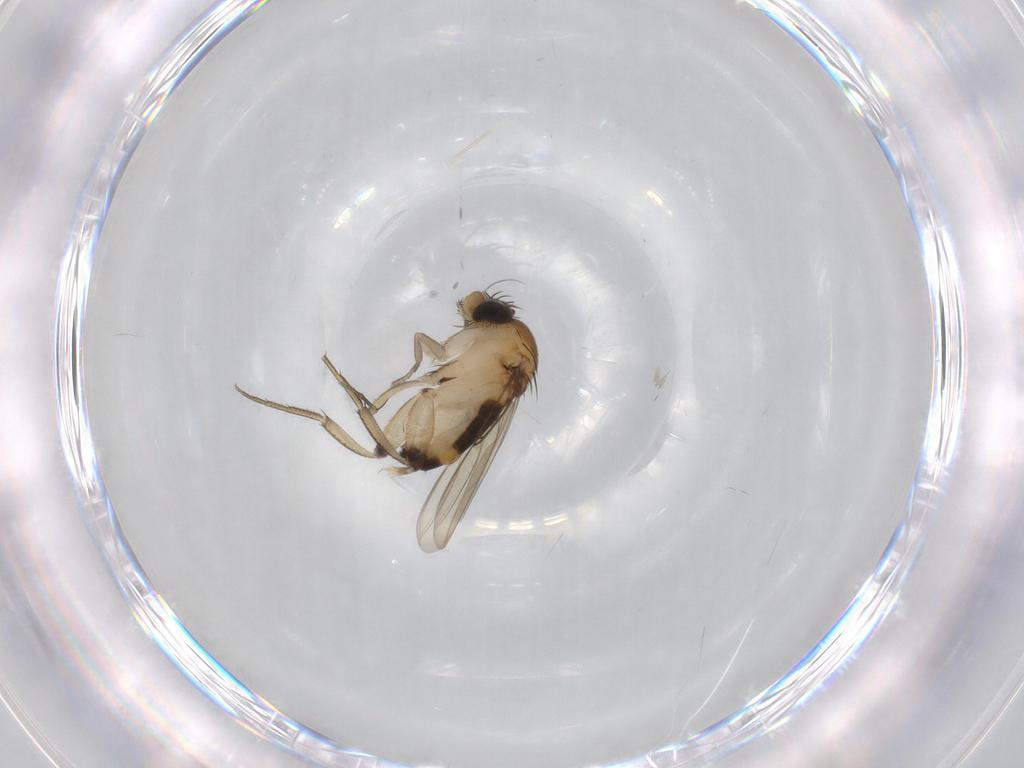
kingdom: Animalia
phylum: Arthropoda
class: Insecta
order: Diptera
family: Phoridae
